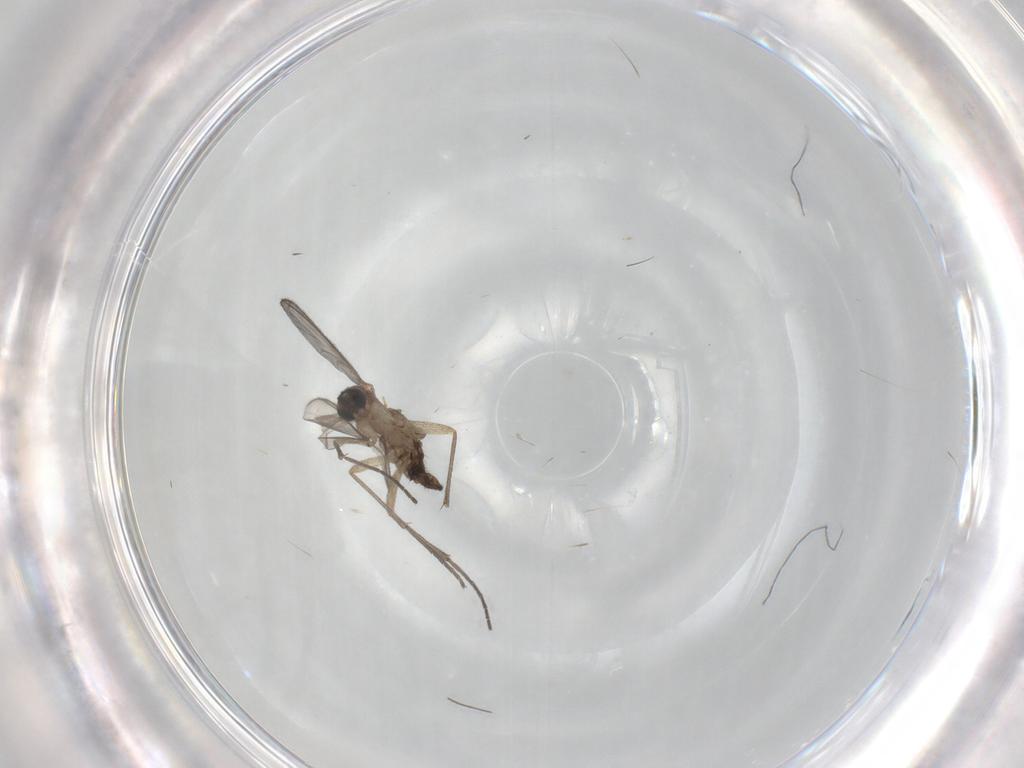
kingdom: Animalia
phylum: Arthropoda
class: Insecta
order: Diptera
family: Sciaridae
